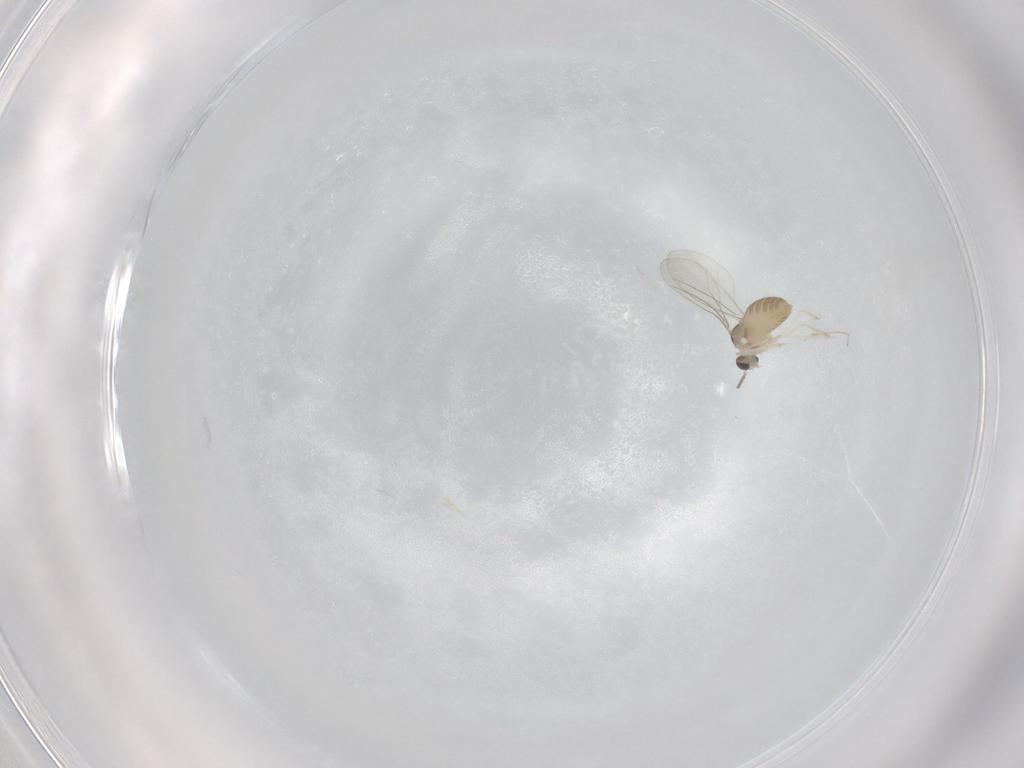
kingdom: Animalia
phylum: Arthropoda
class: Insecta
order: Diptera
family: Cecidomyiidae
